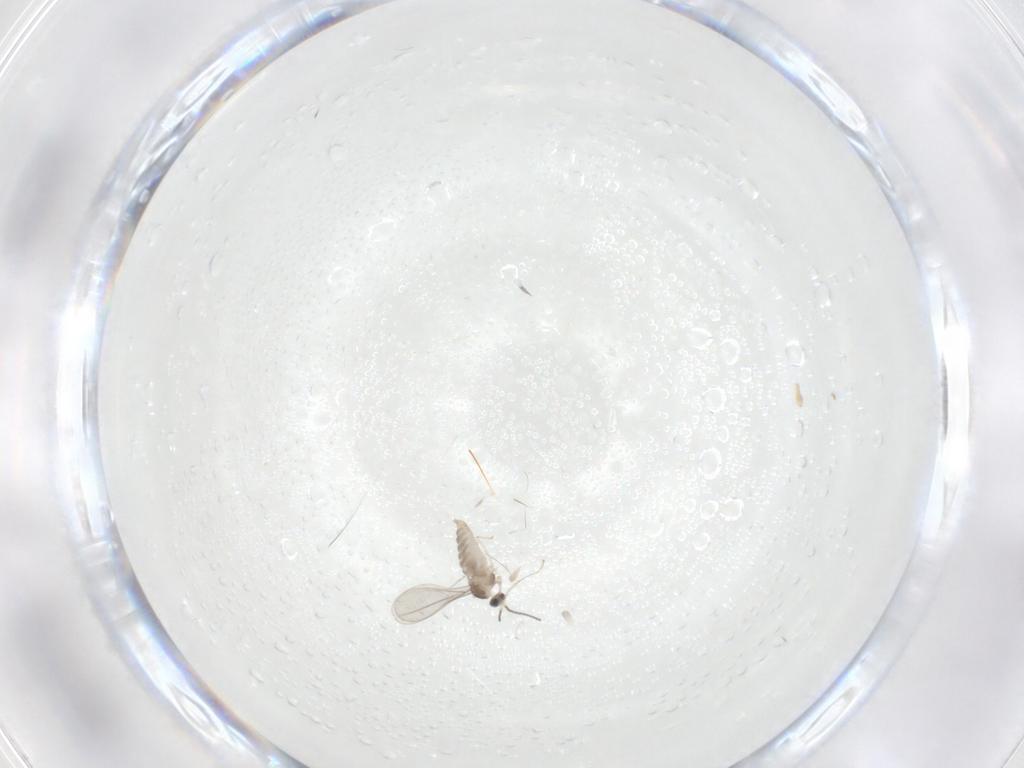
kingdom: Animalia
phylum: Arthropoda
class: Insecta
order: Diptera
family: Cecidomyiidae
